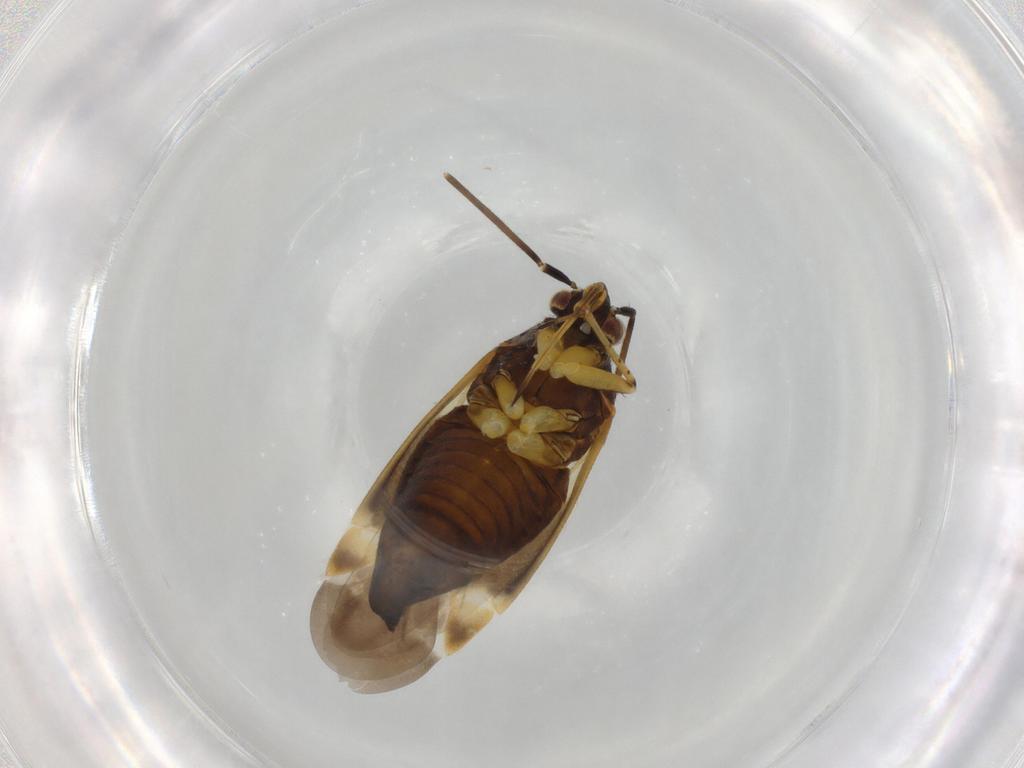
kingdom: Animalia
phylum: Arthropoda
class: Insecta
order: Hemiptera
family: Miridae
